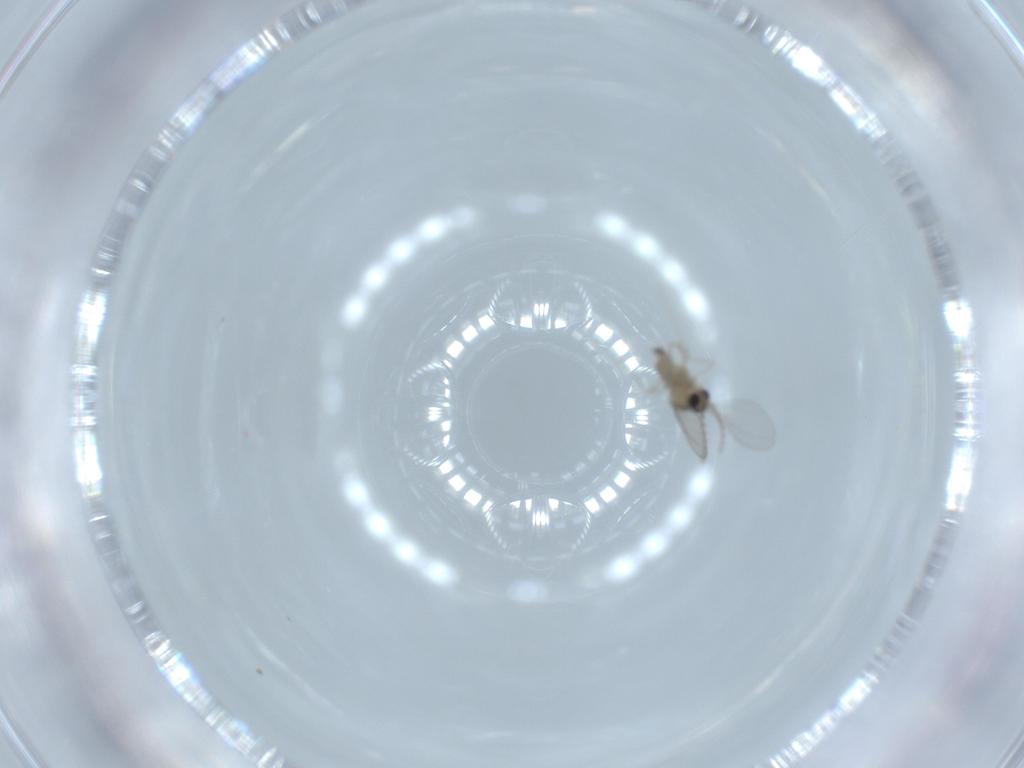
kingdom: Animalia
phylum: Arthropoda
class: Insecta
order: Diptera
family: Cecidomyiidae
